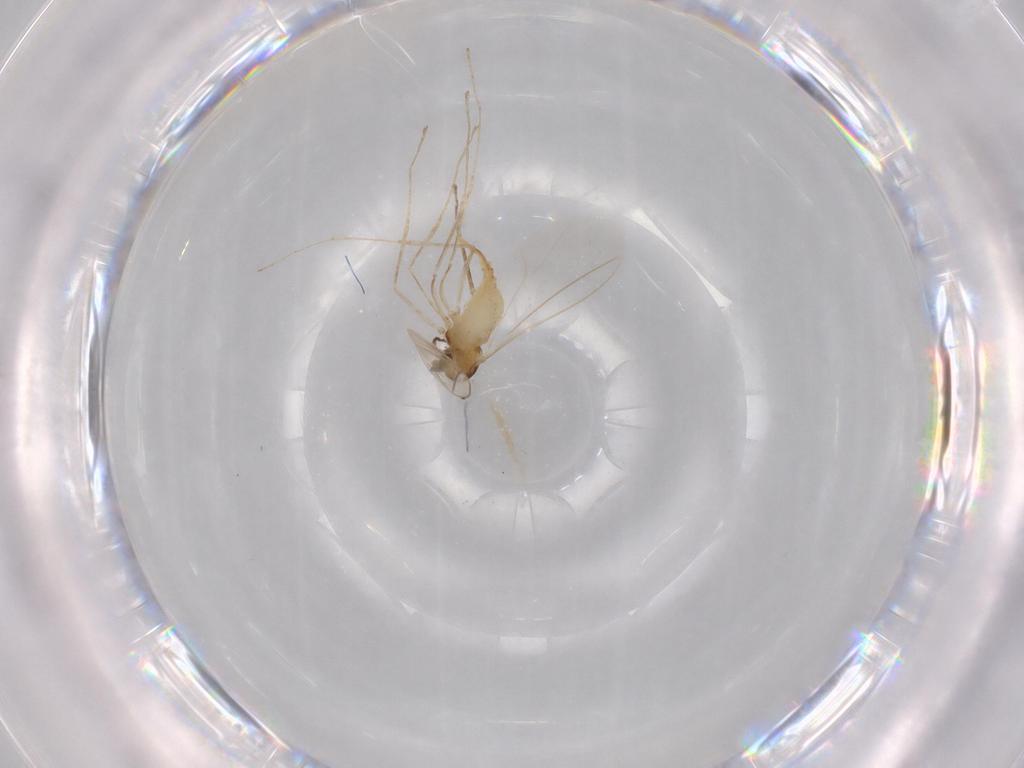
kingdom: Animalia
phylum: Arthropoda
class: Insecta
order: Diptera
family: Cecidomyiidae
